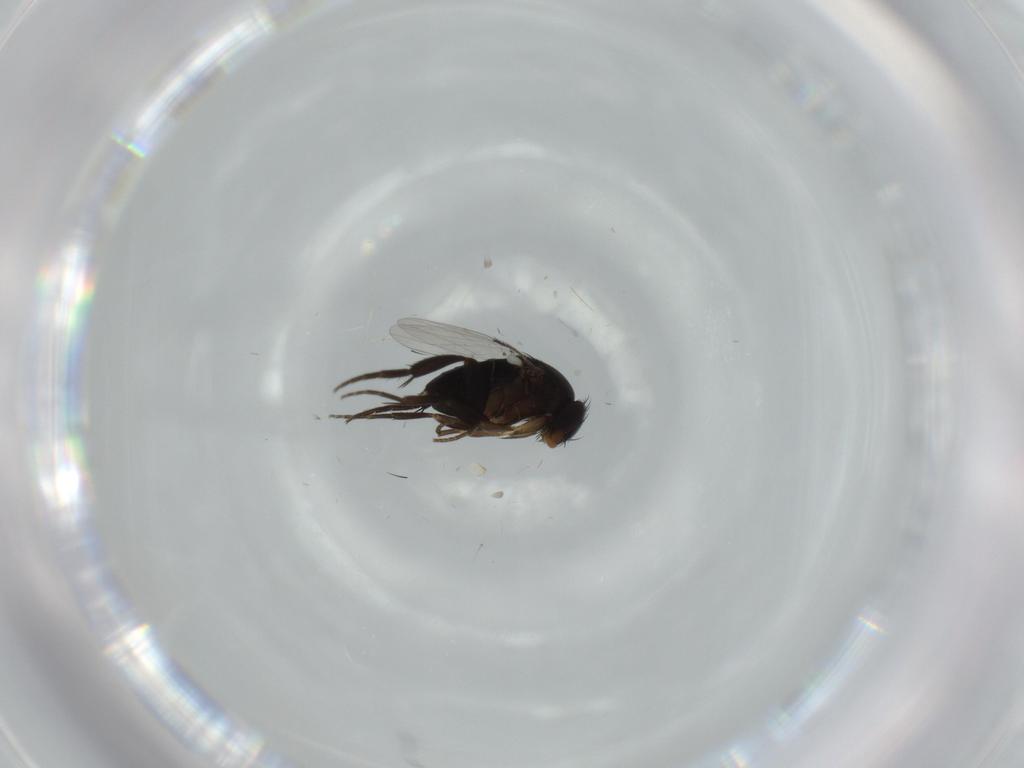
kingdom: Animalia
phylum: Arthropoda
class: Insecta
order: Diptera
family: Phoridae
